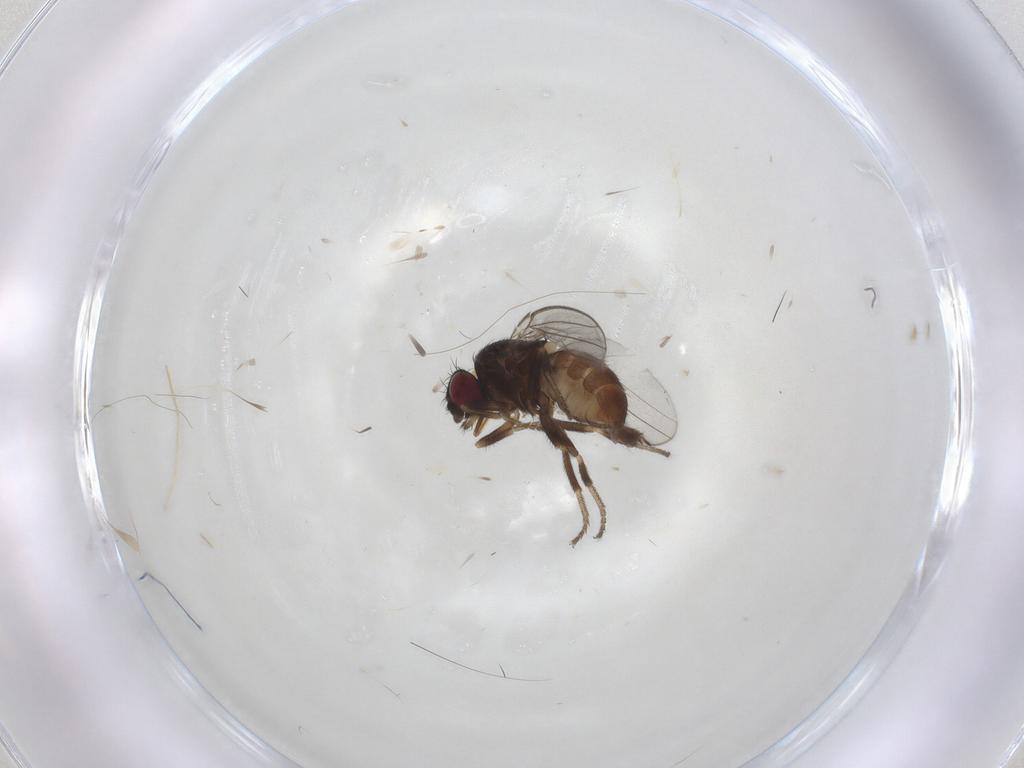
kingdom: Animalia
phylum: Arthropoda
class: Insecta
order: Diptera
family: Milichiidae
